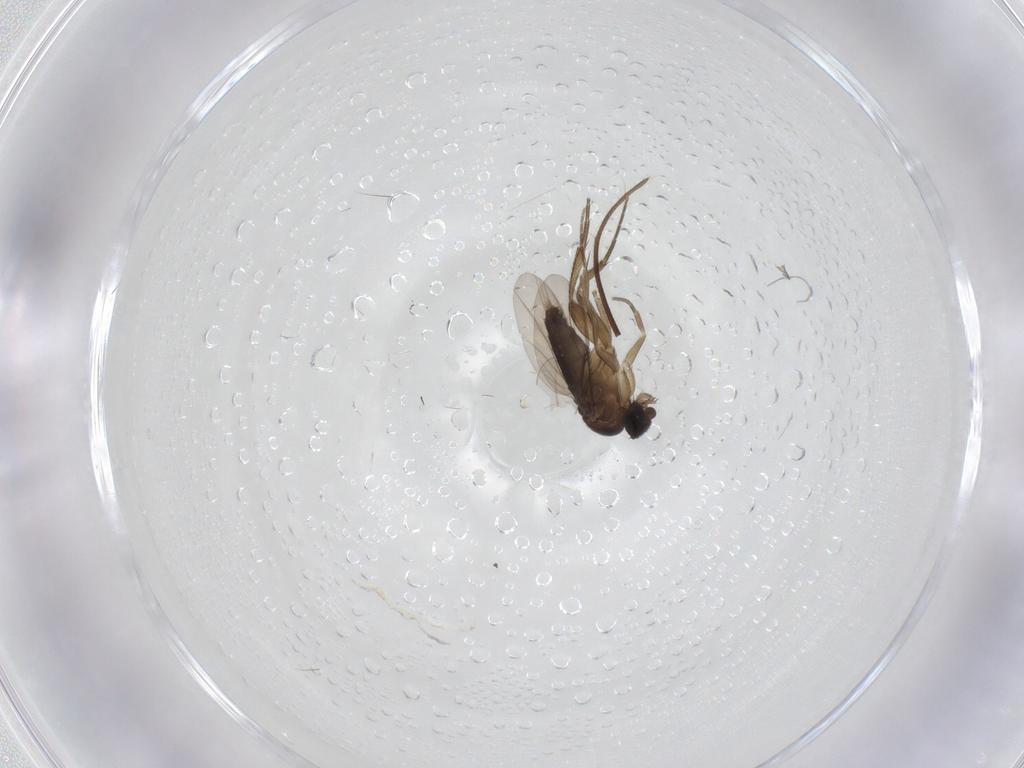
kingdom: Animalia
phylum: Arthropoda
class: Insecta
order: Diptera
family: Phoridae
